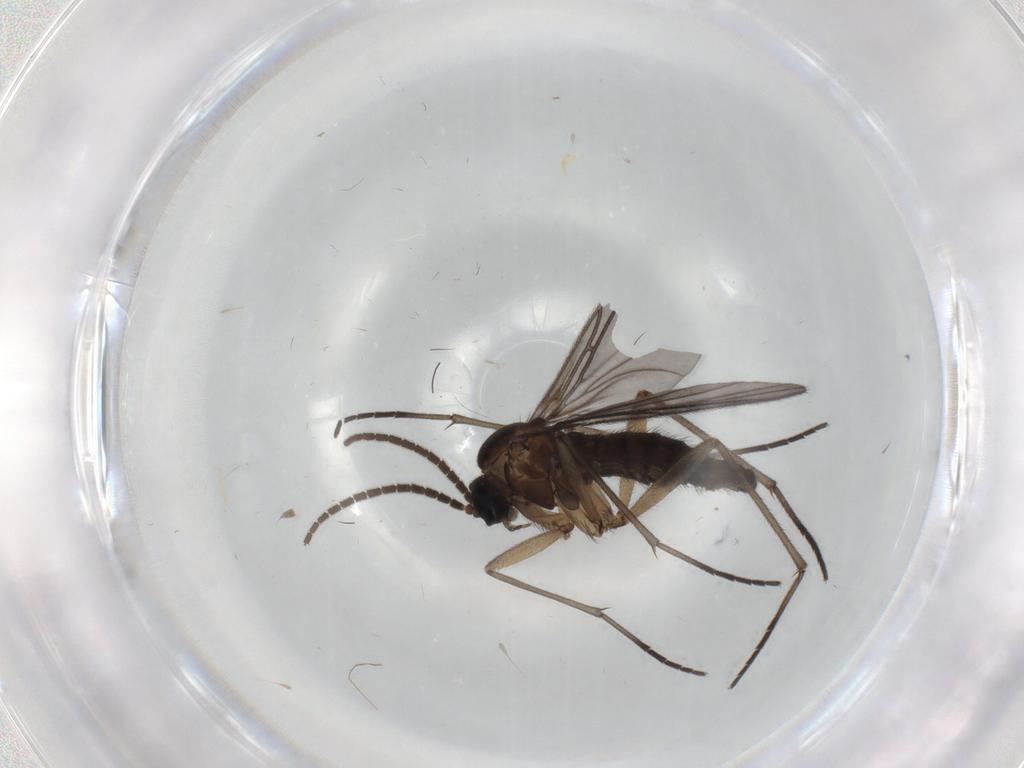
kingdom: Animalia
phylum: Arthropoda
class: Insecta
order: Diptera
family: Sciaridae
